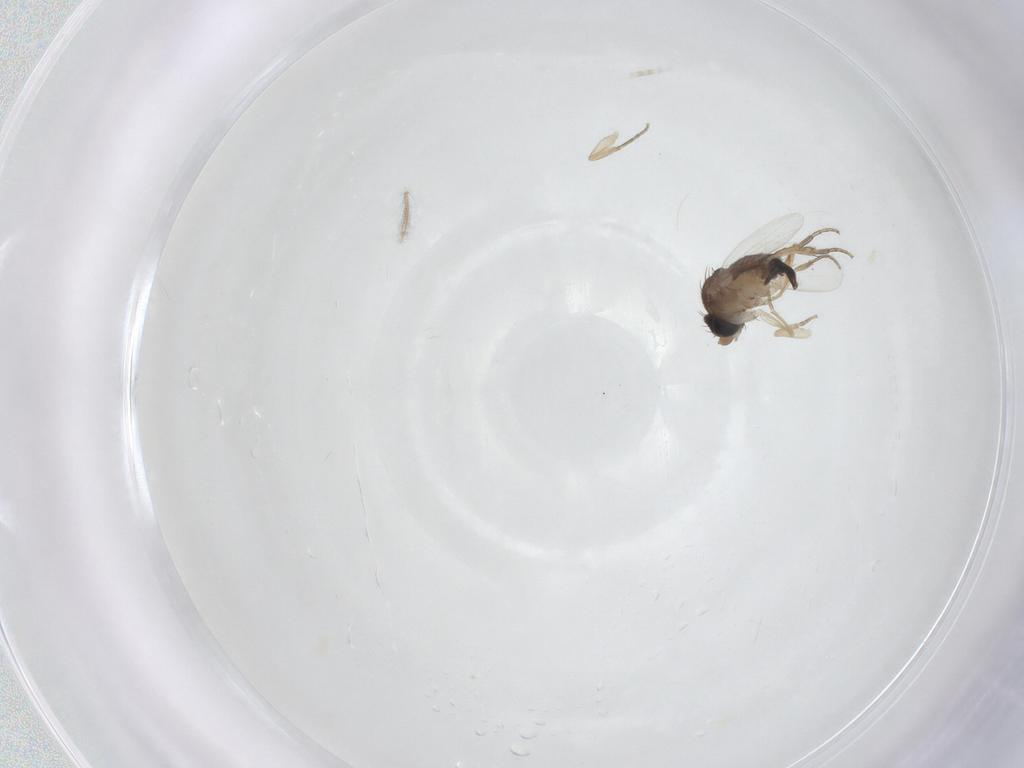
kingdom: Animalia
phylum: Arthropoda
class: Insecta
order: Diptera
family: Phoridae
